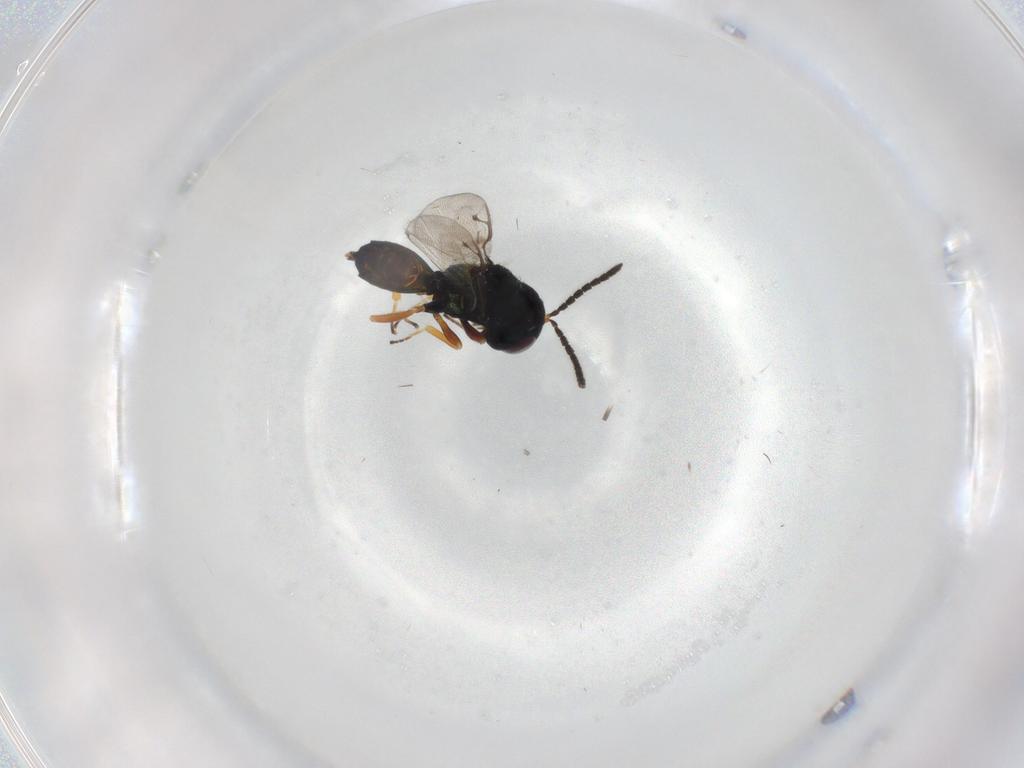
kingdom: Animalia
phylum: Arthropoda
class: Insecta
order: Hymenoptera
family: Pteromalidae
